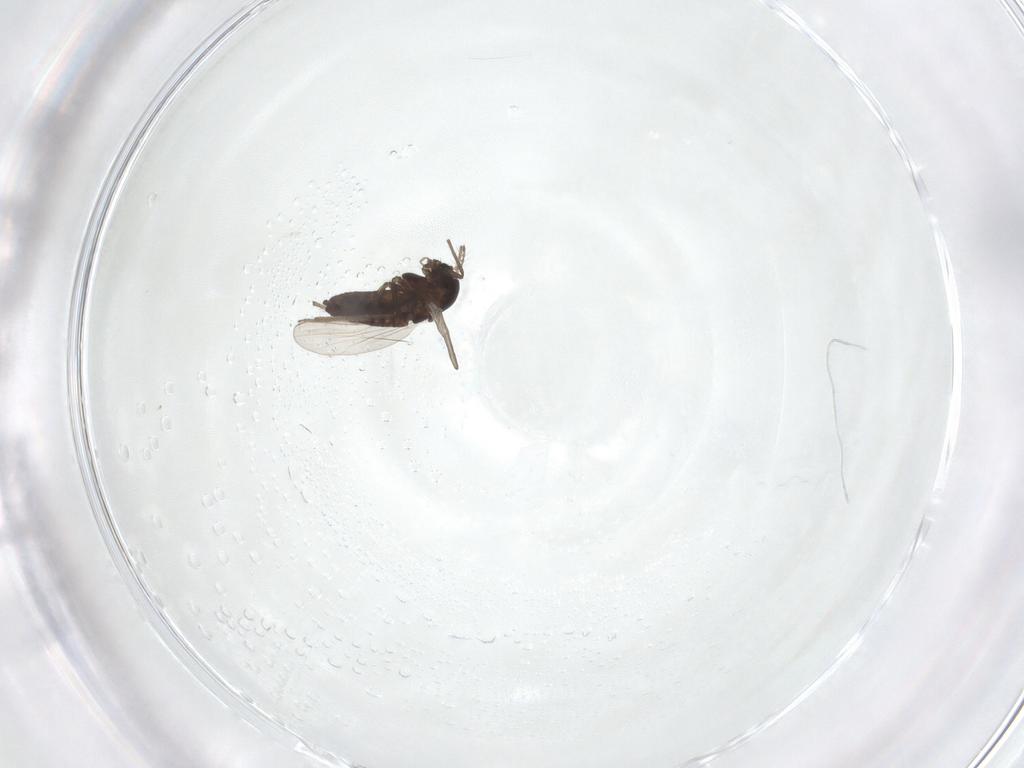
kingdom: Animalia
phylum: Arthropoda
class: Insecta
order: Diptera
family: Chironomidae
